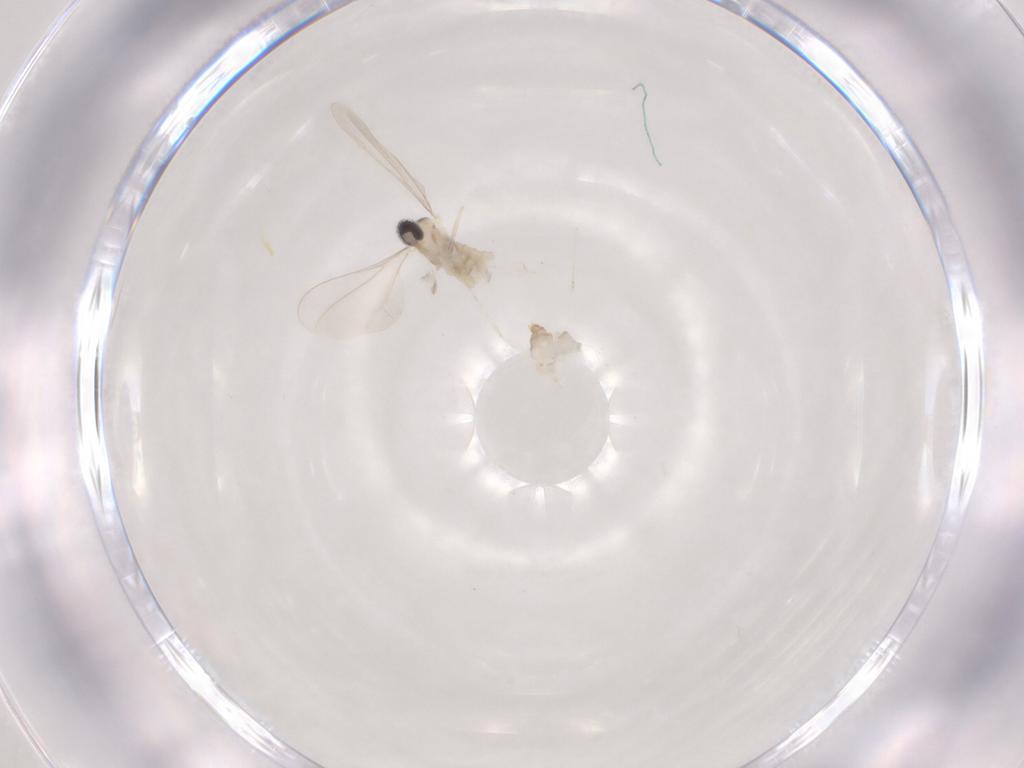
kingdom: Animalia
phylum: Arthropoda
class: Insecta
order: Diptera
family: Cecidomyiidae
